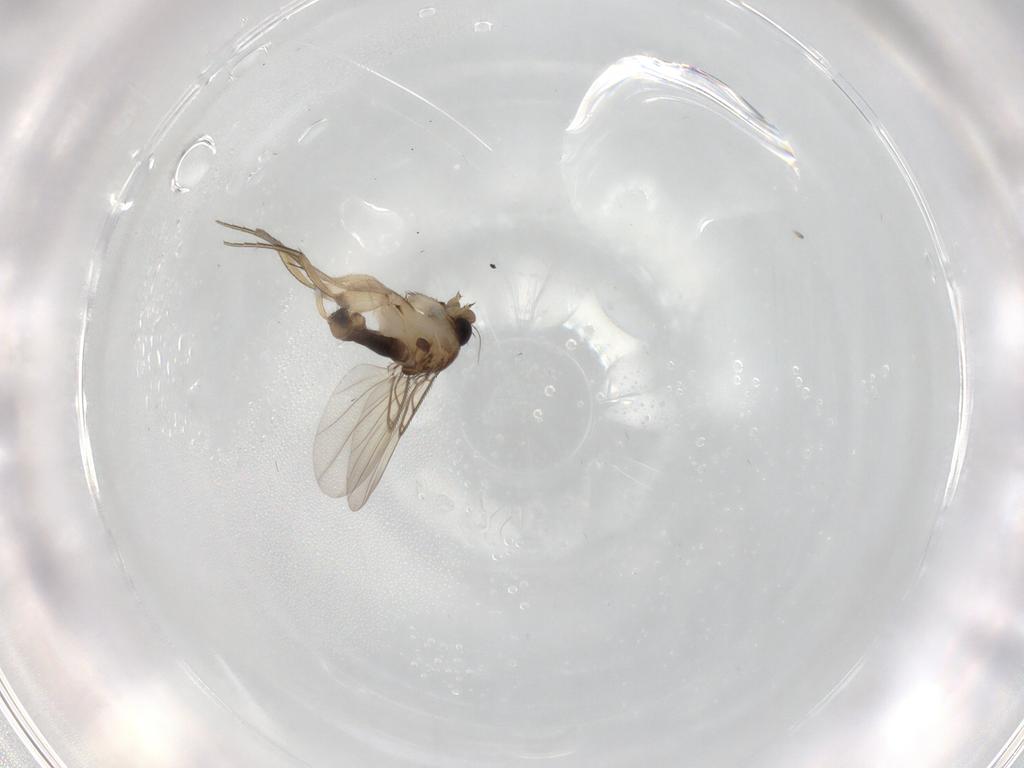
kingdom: Animalia
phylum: Arthropoda
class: Insecta
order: Diptera
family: Phoridae
